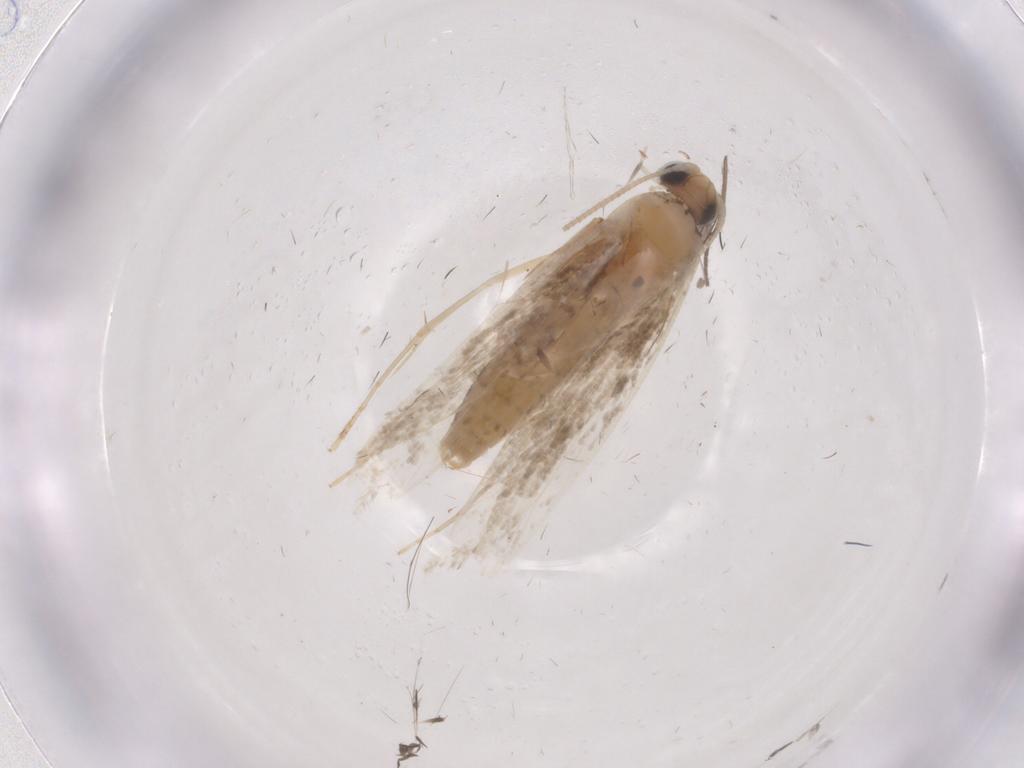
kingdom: Animalia
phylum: Arthropoda
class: Insecta
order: Lepidoptera
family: Tineidae
